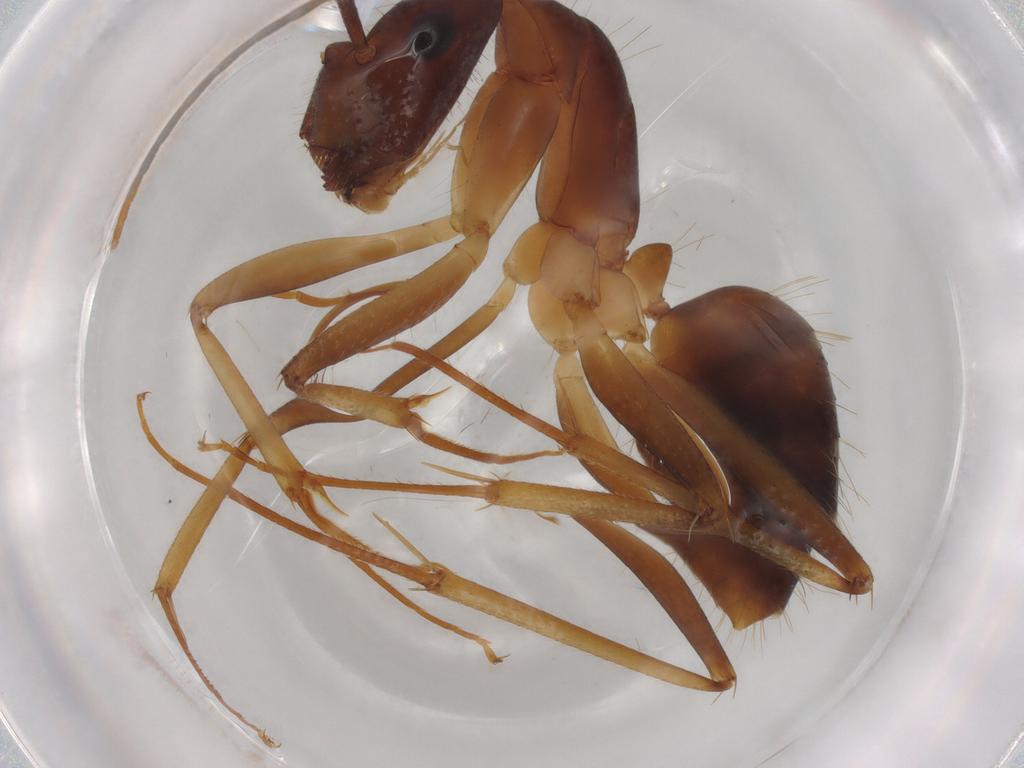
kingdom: Animalia
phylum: Arthropoda
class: Insecta
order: Hymenoptera
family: Formicidae
